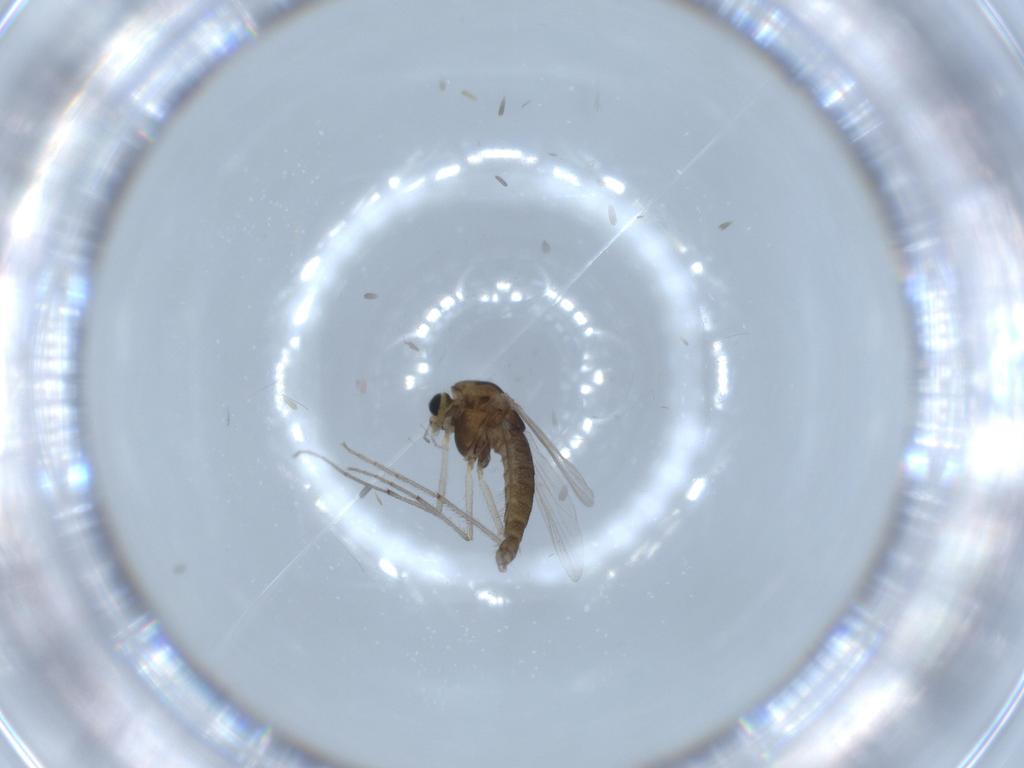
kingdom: Animalia
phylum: Arthropoda
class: Insecta
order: Diptera
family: Chironomidae
